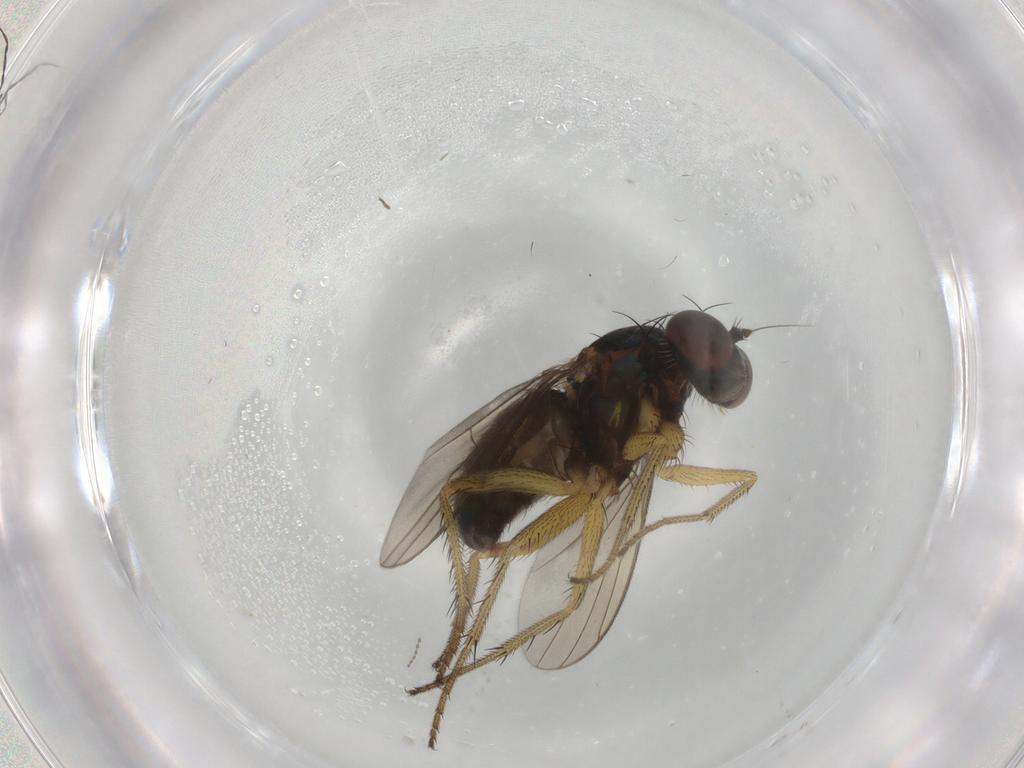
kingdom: Animalia
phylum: Arthropoda
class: Insecta
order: Diptera
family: Dolichopodidae
